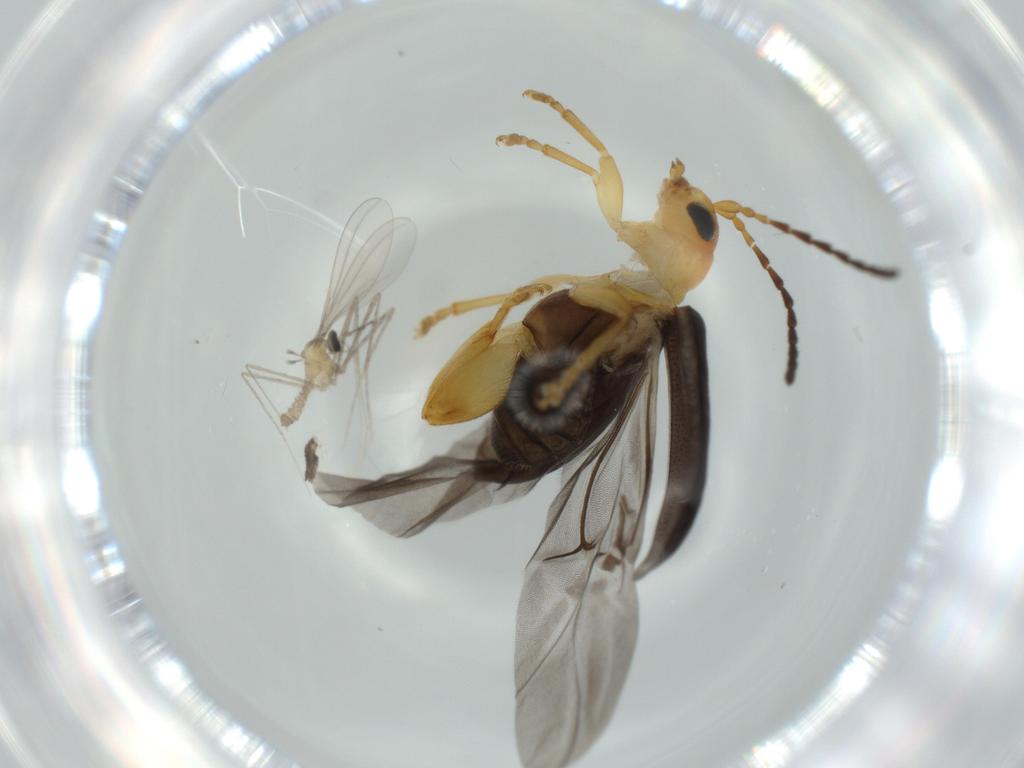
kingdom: Animalia
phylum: Arthropoda
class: Insecta
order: Coleoptera
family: Chrysomelidae
